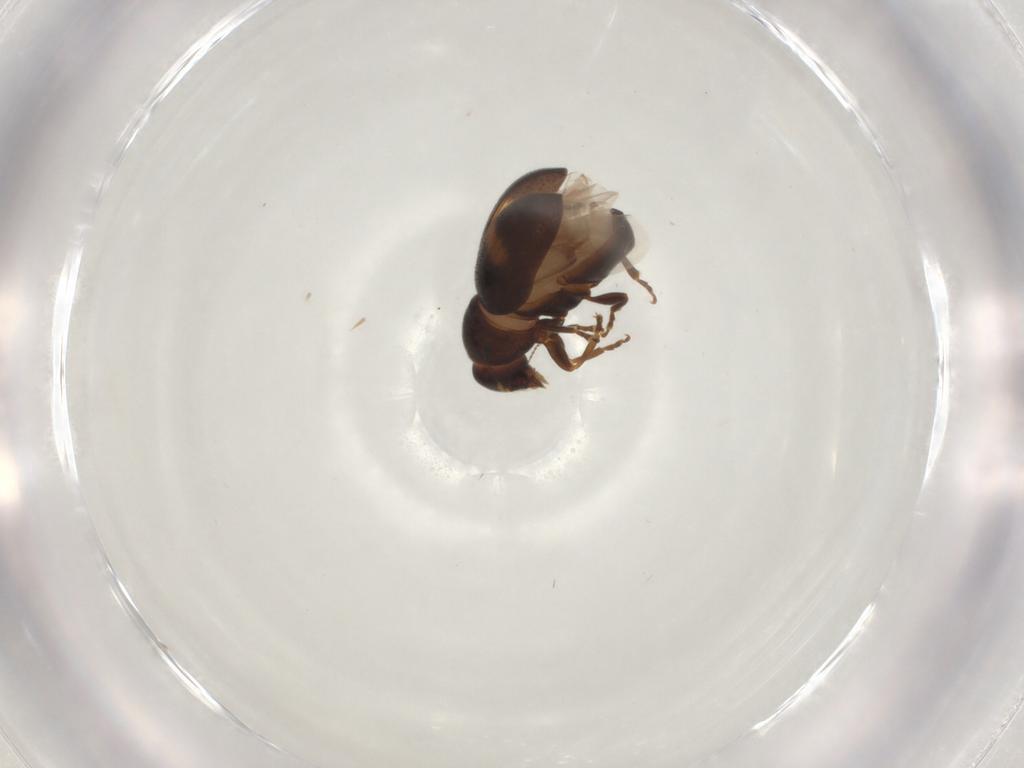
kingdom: Animalia
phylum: Arthropoda
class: Insecta
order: Coleoptera
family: Anthribidae
